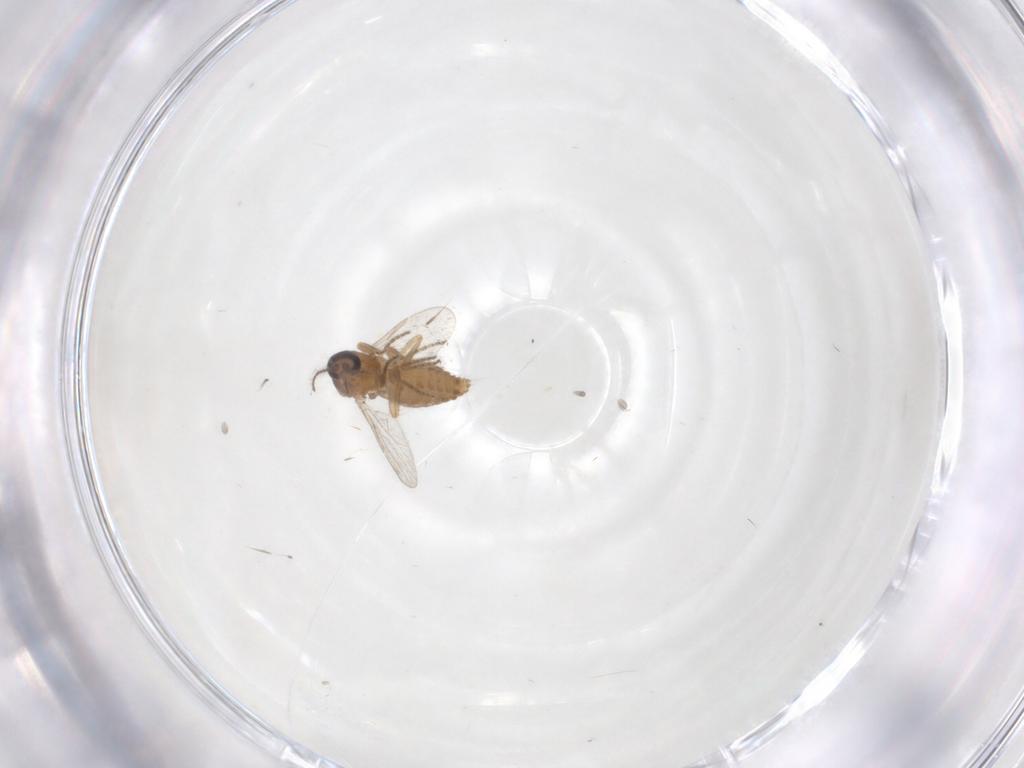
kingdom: Animalia
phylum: Arthropoda
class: Insecta
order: Diptera
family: Ceratopogonidae
